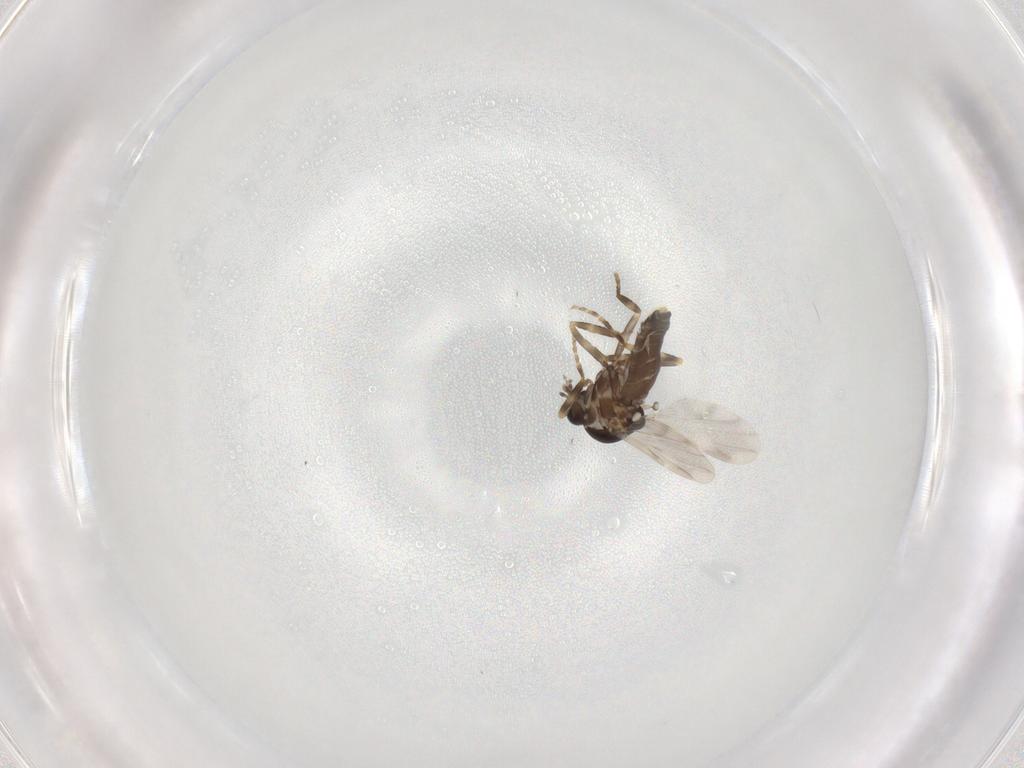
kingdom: Animalia
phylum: Arthropoda
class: Insecta
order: Diptera
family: Ceratopogonidae
